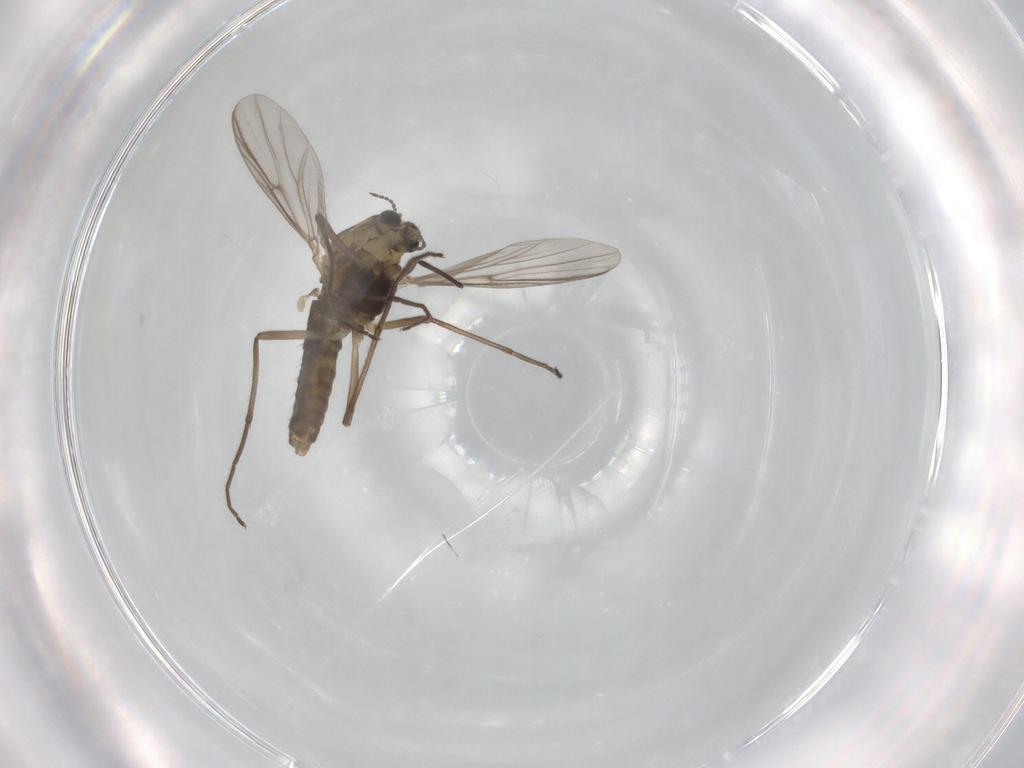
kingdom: Animalia
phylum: Arthropoda
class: Insecta
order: Diptera
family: Chironomidae
